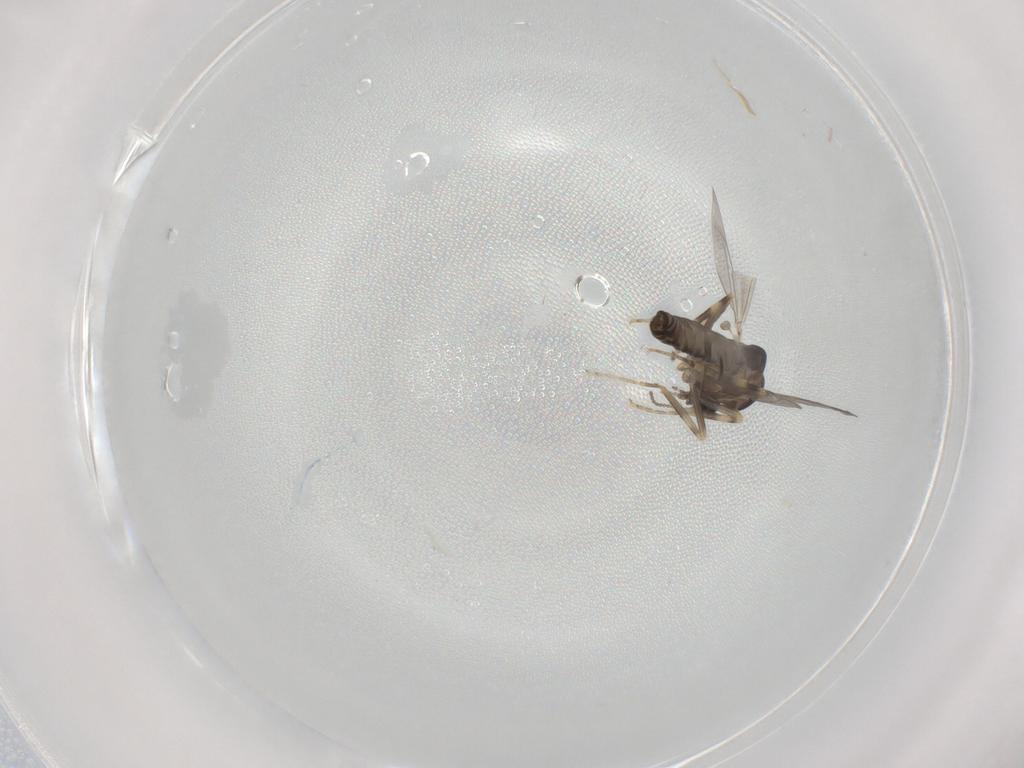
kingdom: Animalia
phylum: Arthropoda
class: Insecta
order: Diptera
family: Ceratopogonidae
